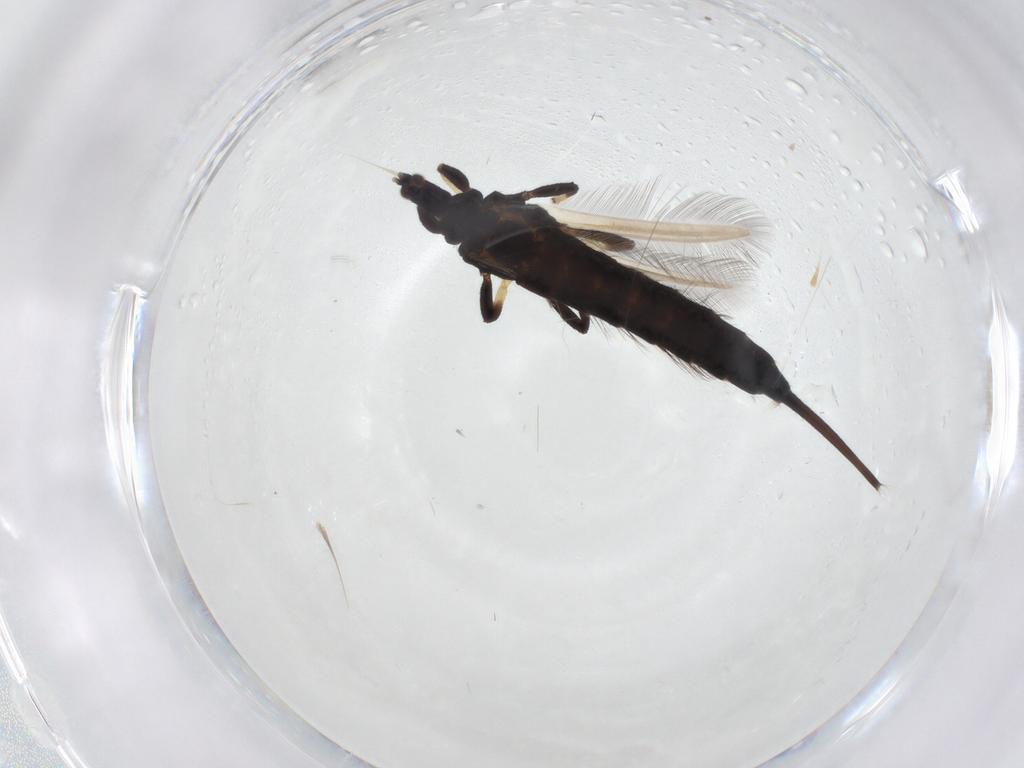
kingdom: Animalia
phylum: Arthropoda
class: Insecta
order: Thysanoptera
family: Phlaeothripidae
